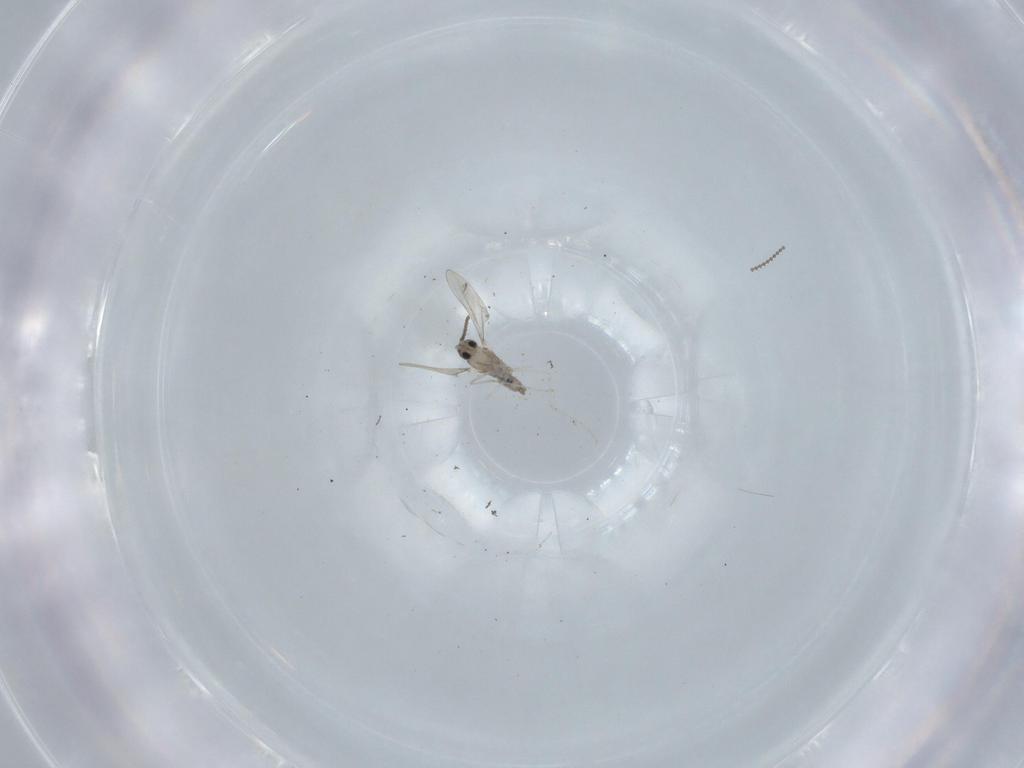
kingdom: Animalia
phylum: Arthropoda
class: Insecta
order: Diptera
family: Cecidomyiidae
